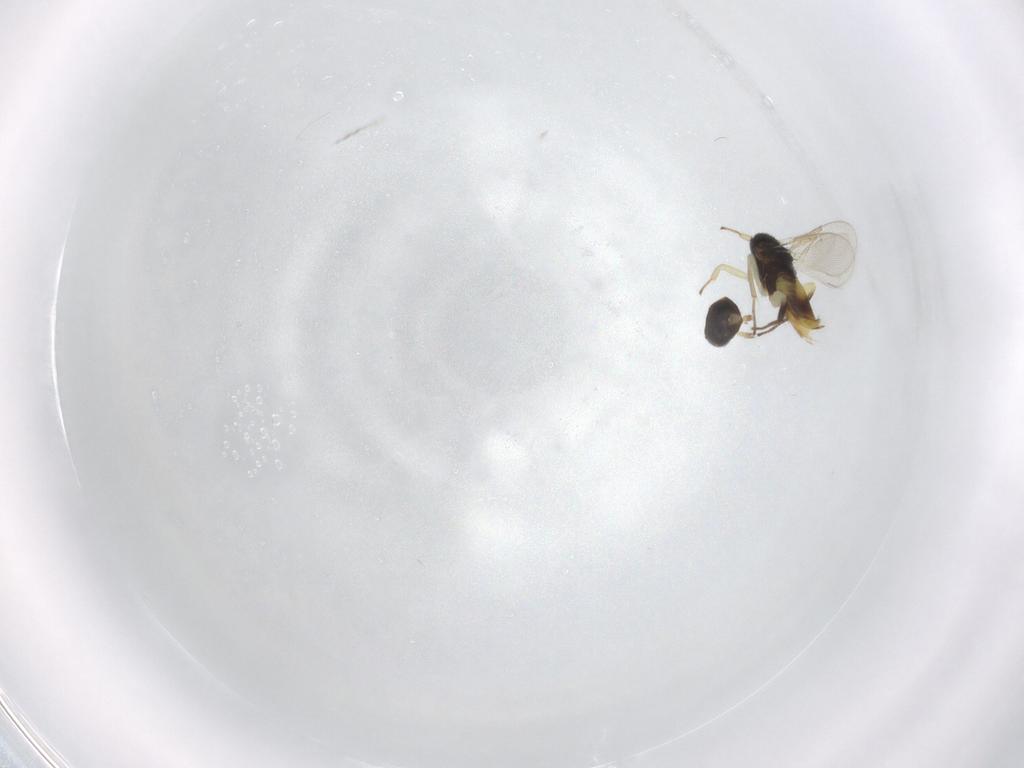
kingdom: Animalia
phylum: Arthropoda
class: Insecta
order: Hymenoptera
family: Aphelinidae
